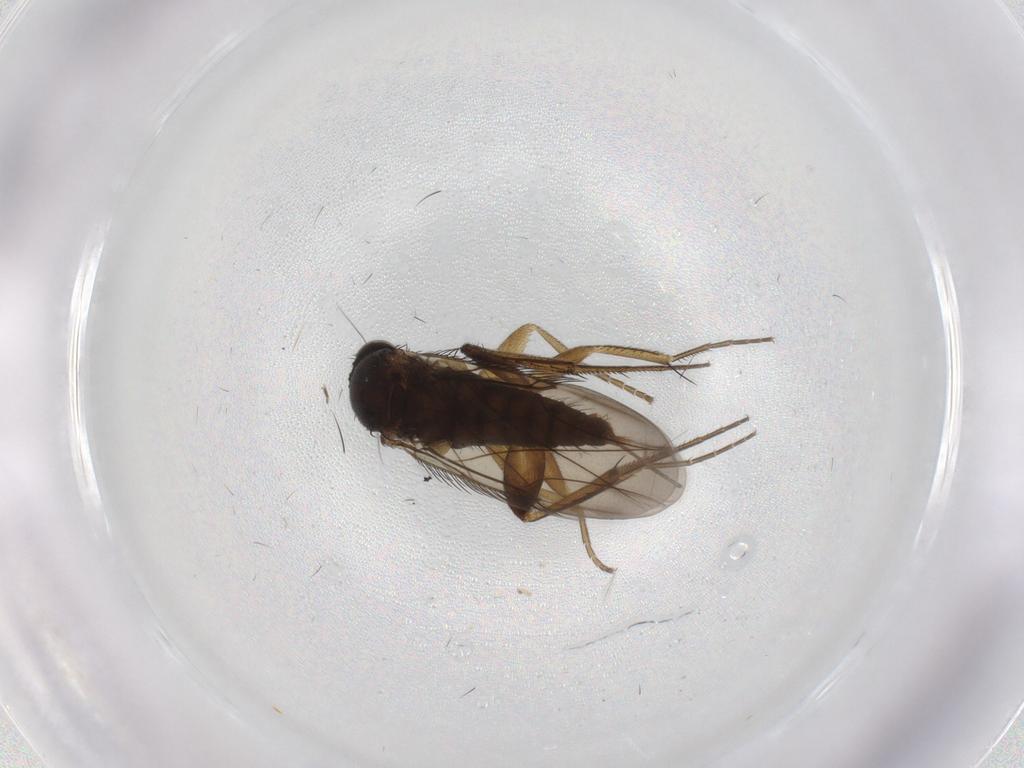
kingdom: Animalia
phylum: Arthropoda
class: Insecta
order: Diptera
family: Phoridae
